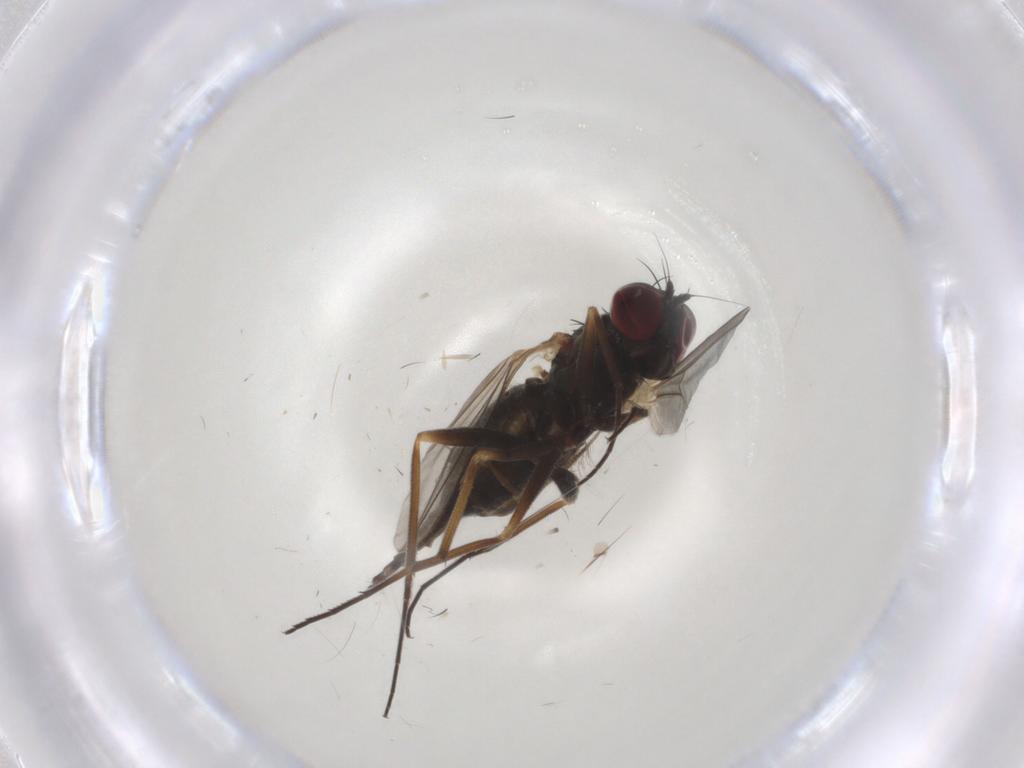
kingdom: Animalia
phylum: Arthropoda
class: Insecta
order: Diptera
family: Dolichopodidae
